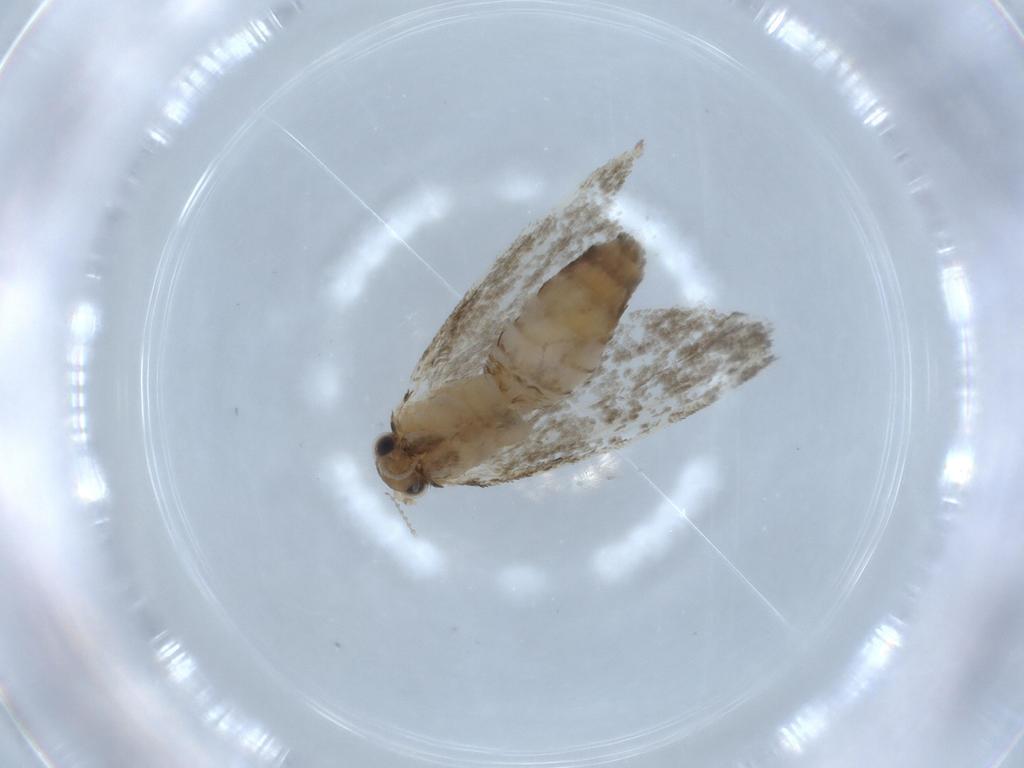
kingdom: Animalia
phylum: Arthropoda
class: Insecta
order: Lepidoptera
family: Tineidae
